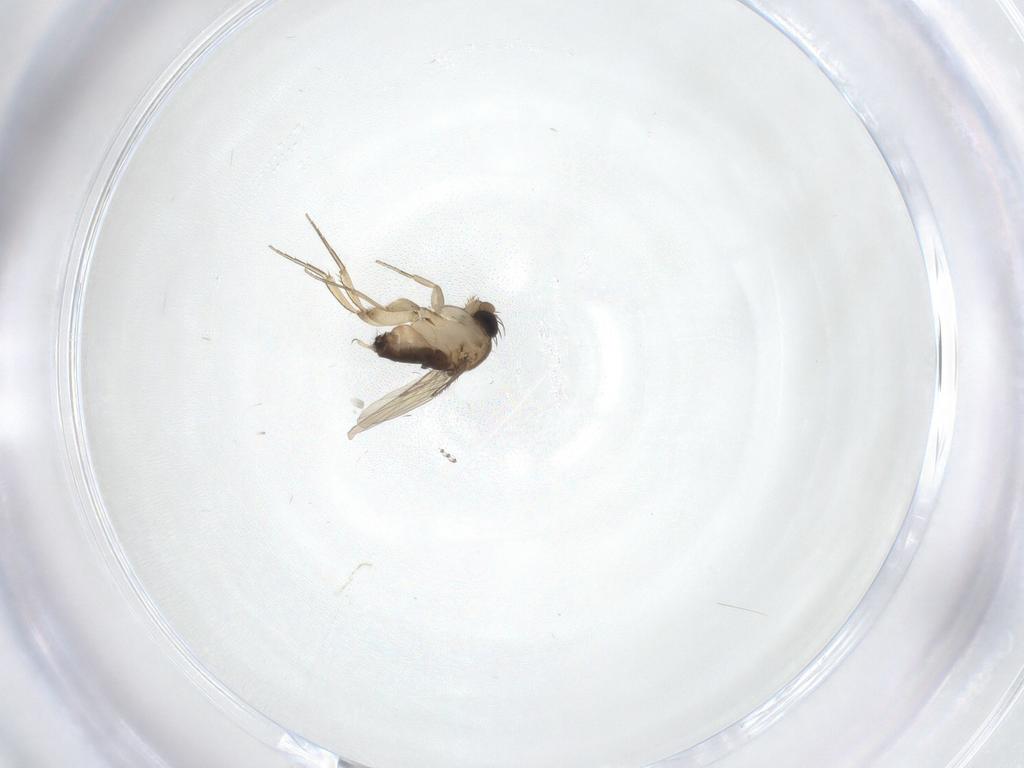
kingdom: Animalia
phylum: Arthropoda
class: Insecta
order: Diptera
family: Phoridae
